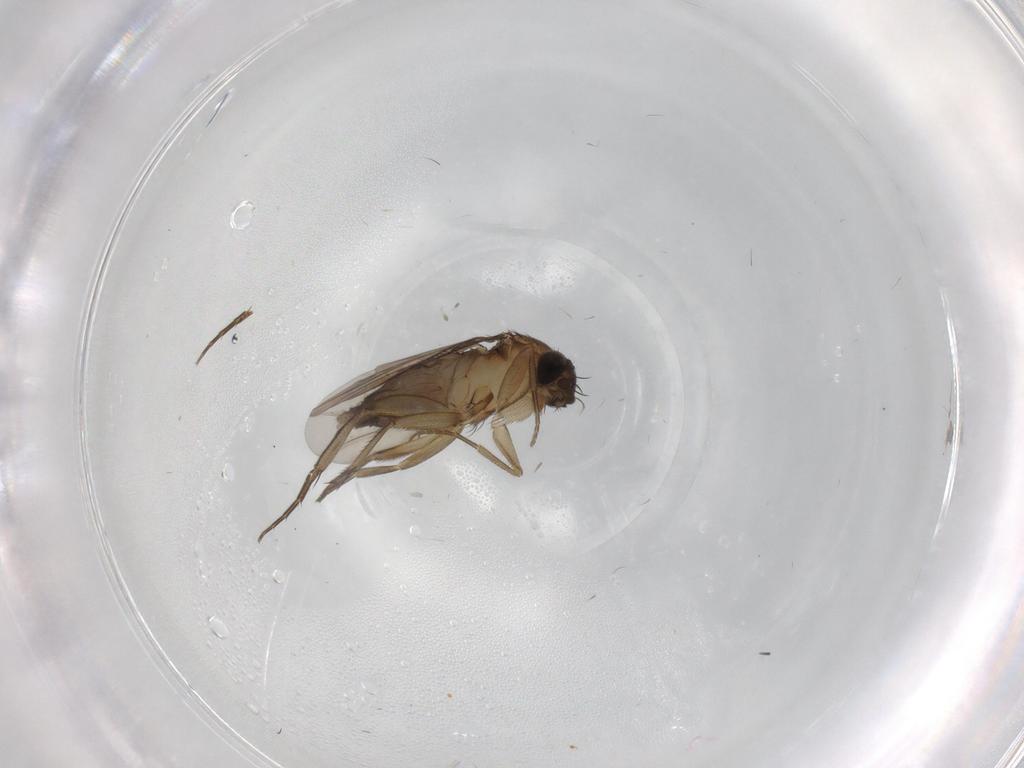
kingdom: Animalia
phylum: Arthropoda
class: Insecta
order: Diptera
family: Phoridae
